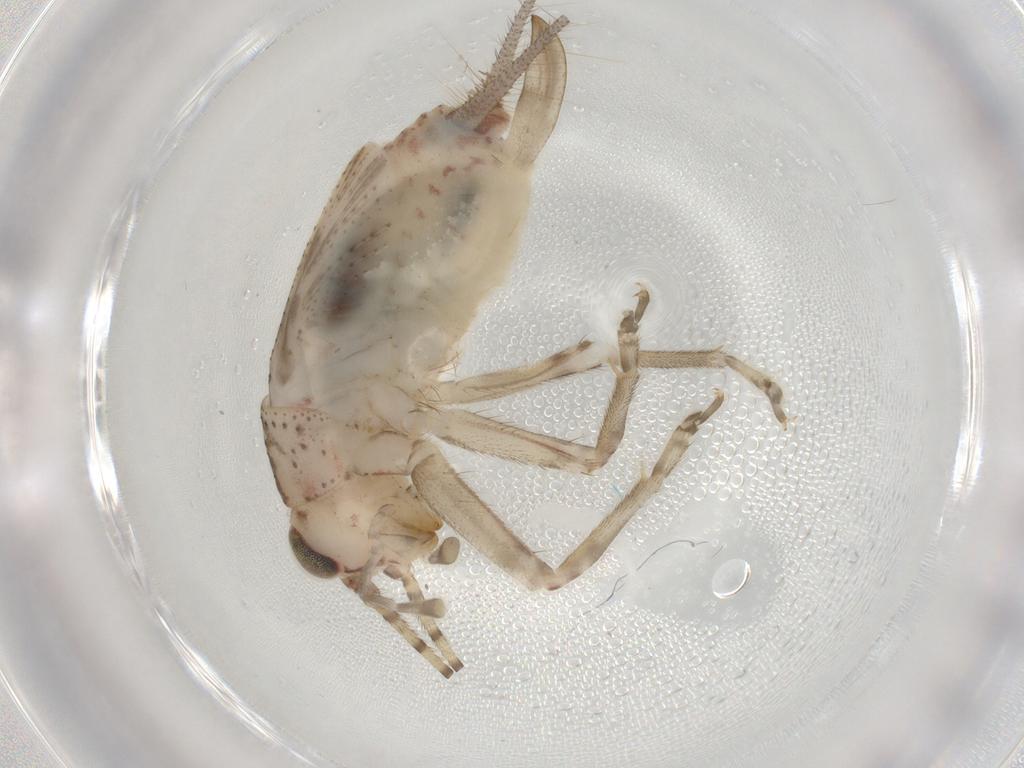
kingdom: Animalia
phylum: Arthropoda
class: Insecta
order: Orthoptera
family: Trigonidiidae
